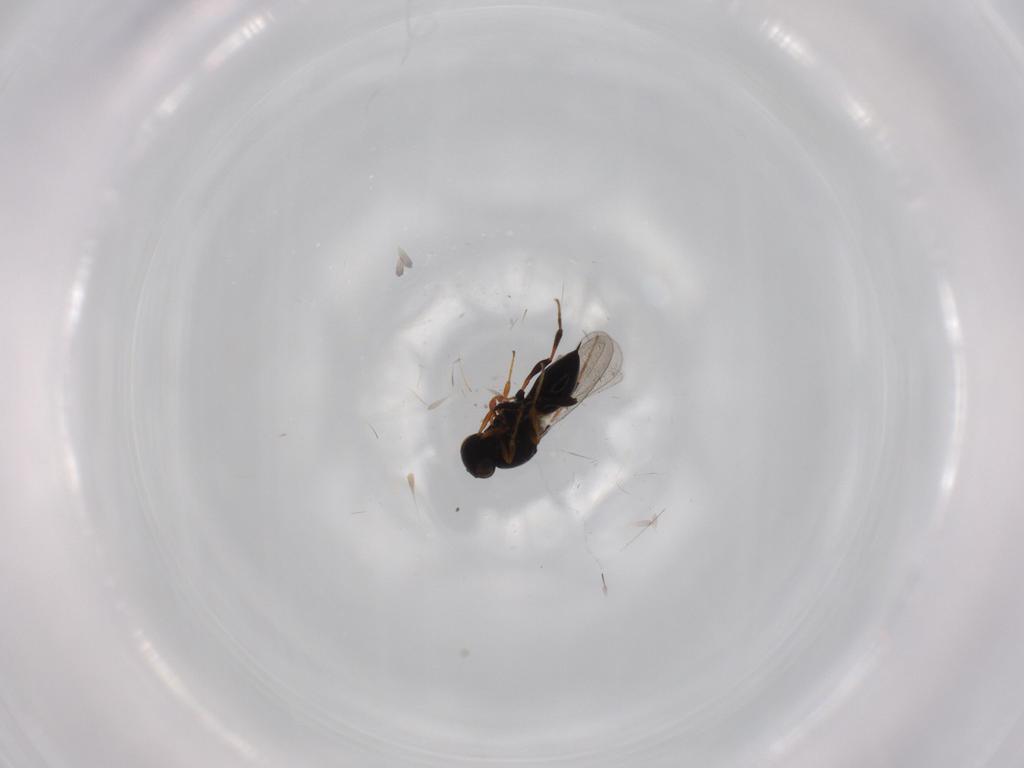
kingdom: Animalia
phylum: Arthropoda
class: Insecta
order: Hymenoptera
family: Platygastridae
